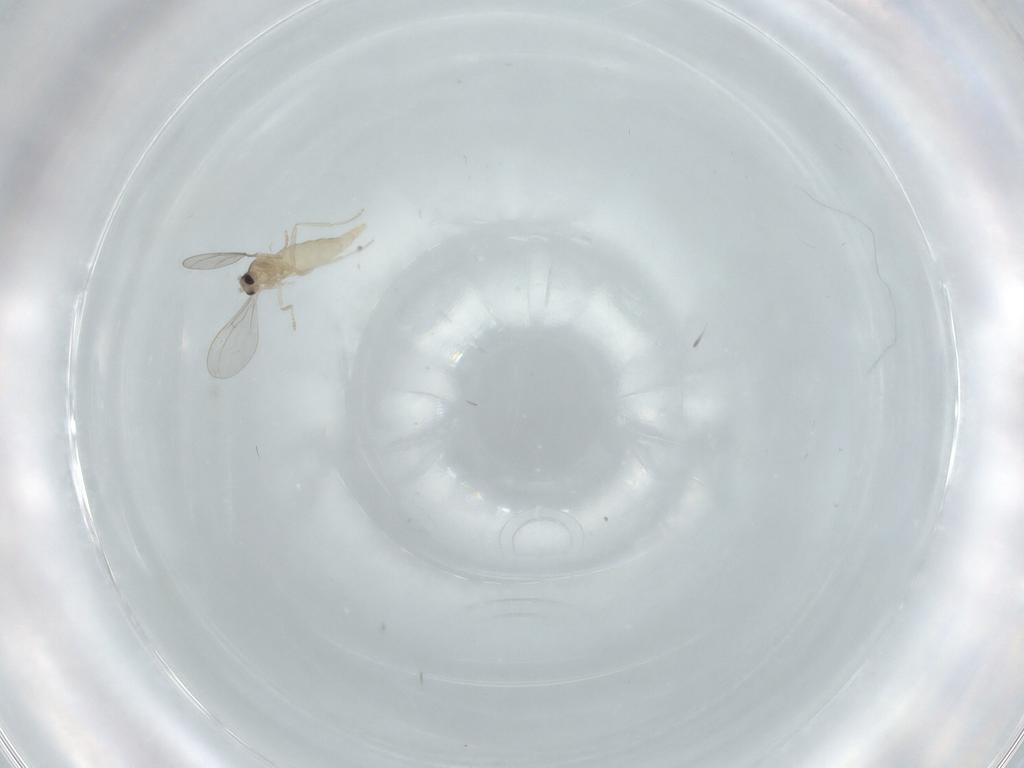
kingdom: Animalia
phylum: Arthropoda
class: Insecta
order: Diptera
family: Cecidomyiidae
